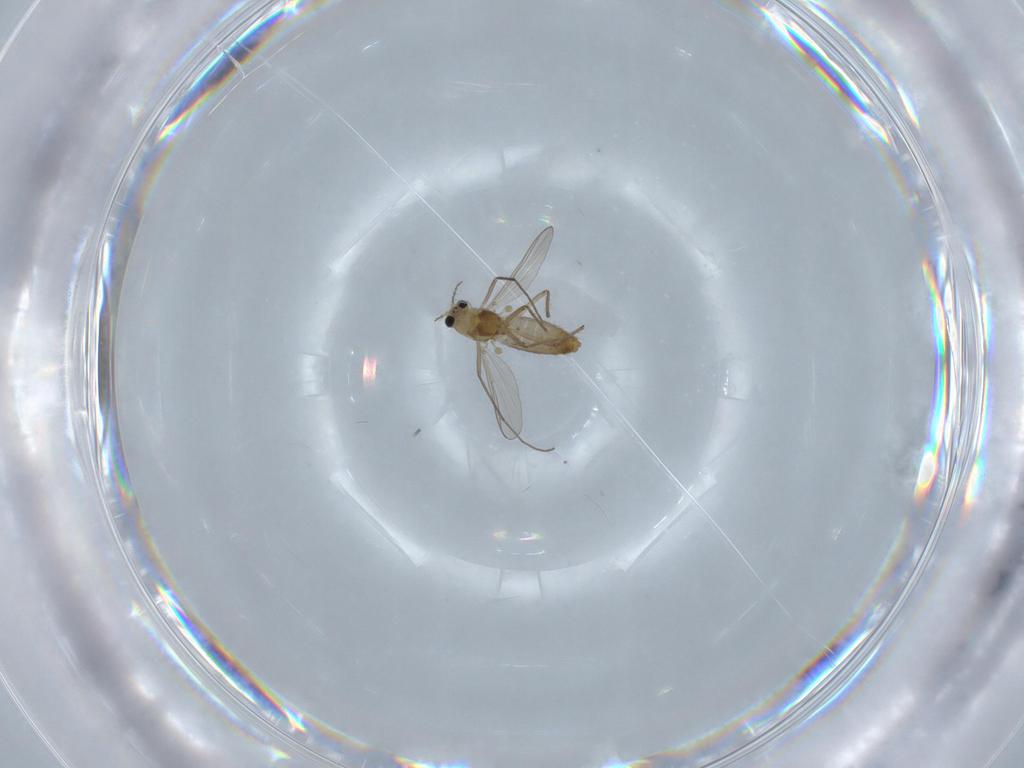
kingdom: Animalia
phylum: Arthropoda
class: Insecta
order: Diptera
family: Chironomidae
